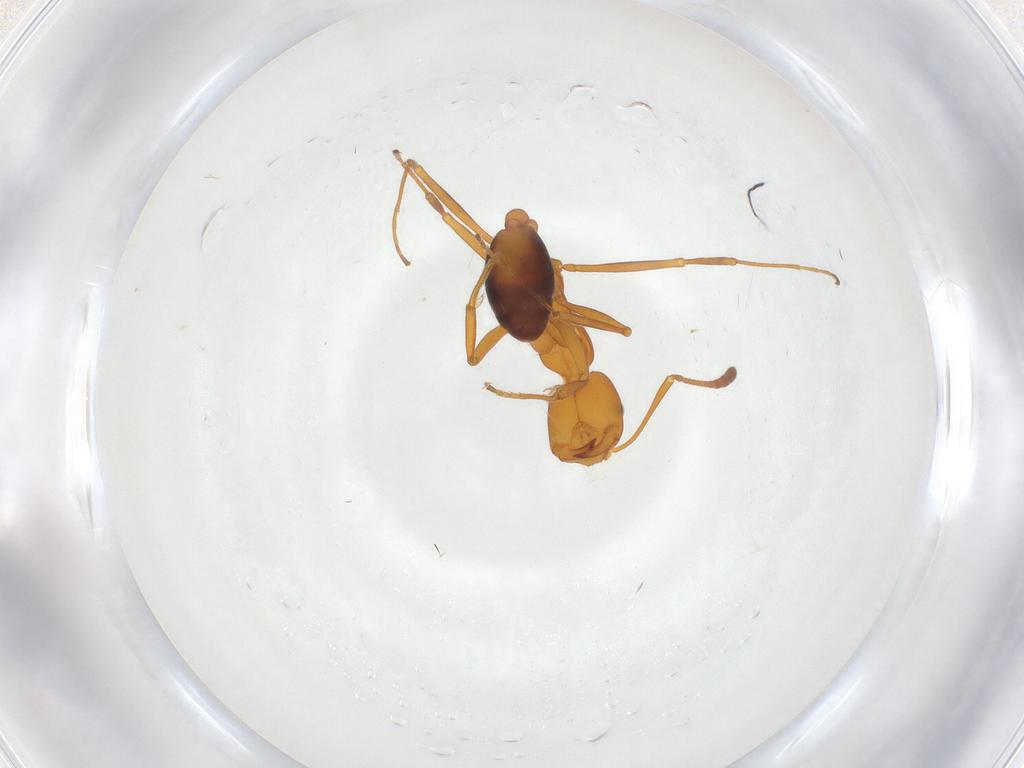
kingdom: Animalia
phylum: Arthropoda
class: Insecta
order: Hymenoptera
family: Formicidae
